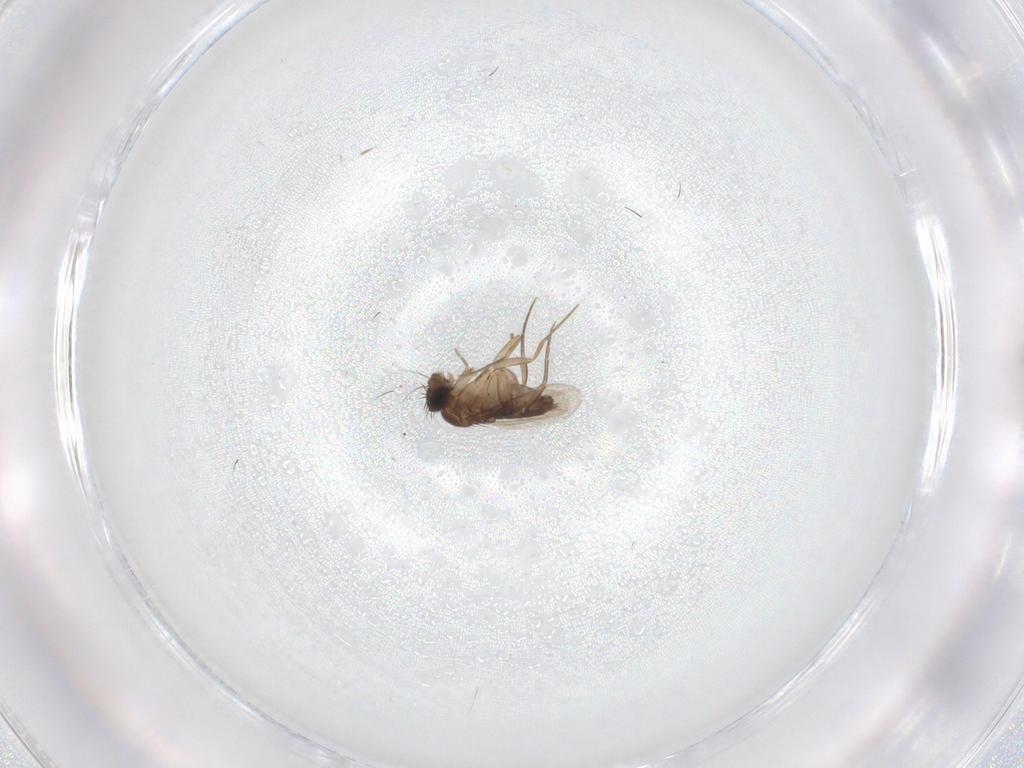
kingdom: Animalia
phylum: Arthropoda
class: Insecta
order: Diptera
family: Phoridae
